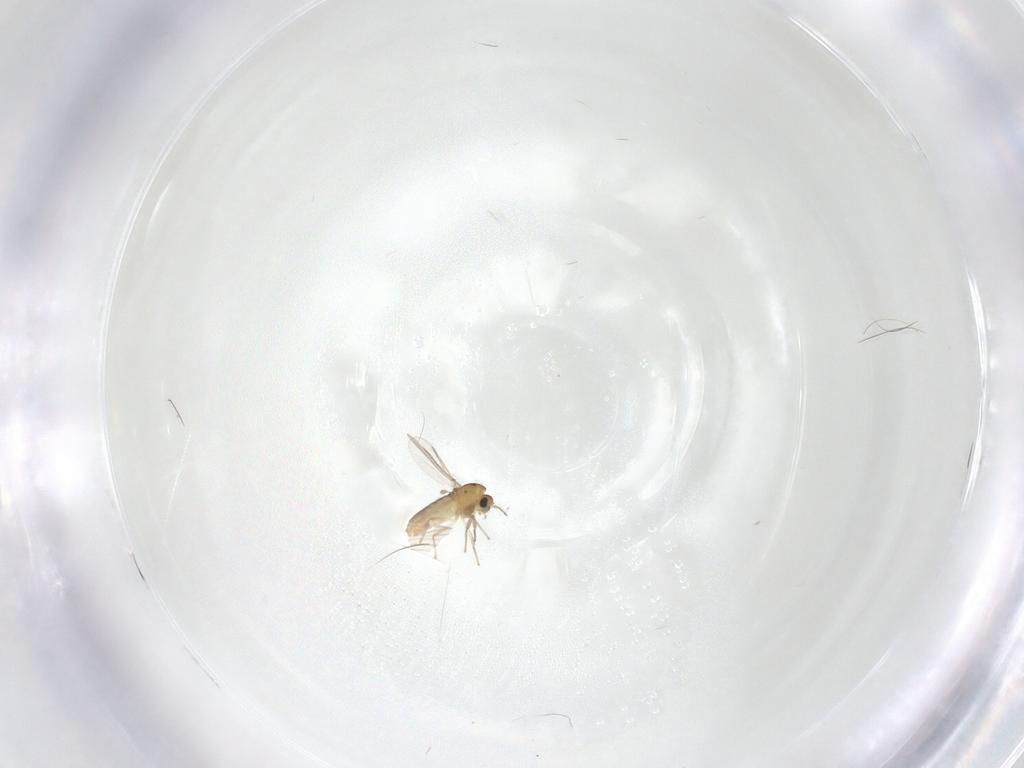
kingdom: Animalia
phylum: Arthropoda
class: Insecta
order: Diptera
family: Chironomidae
